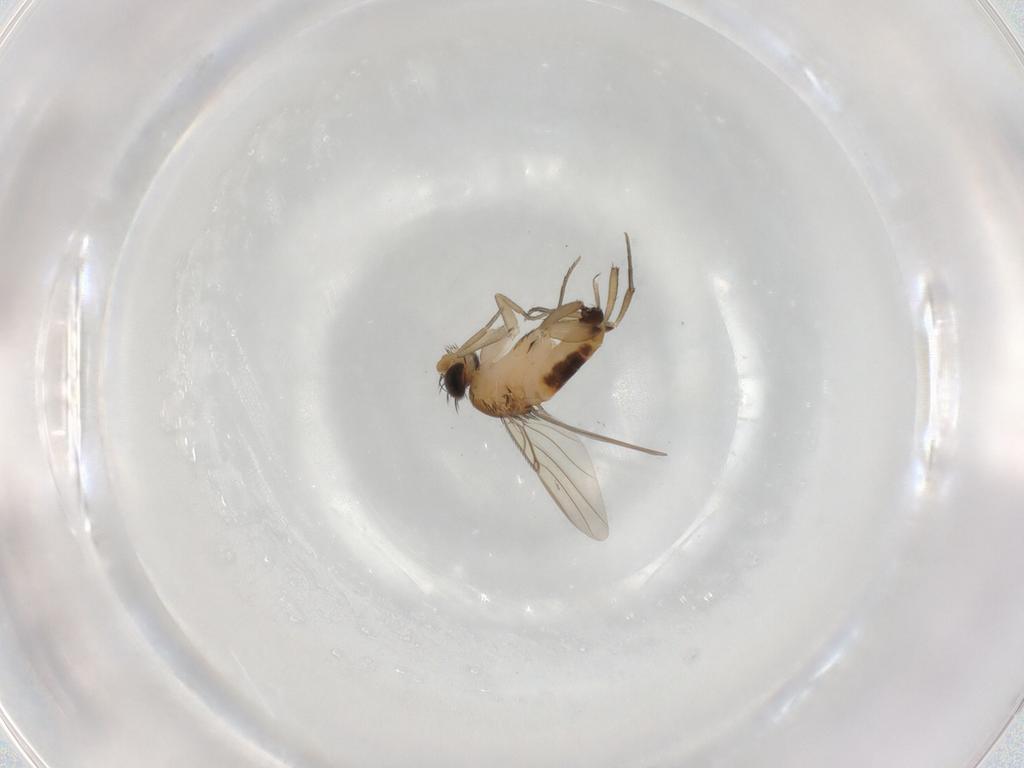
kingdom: Animalia
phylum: Arthropoda
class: Insecta
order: Diptera
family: Phoridae
